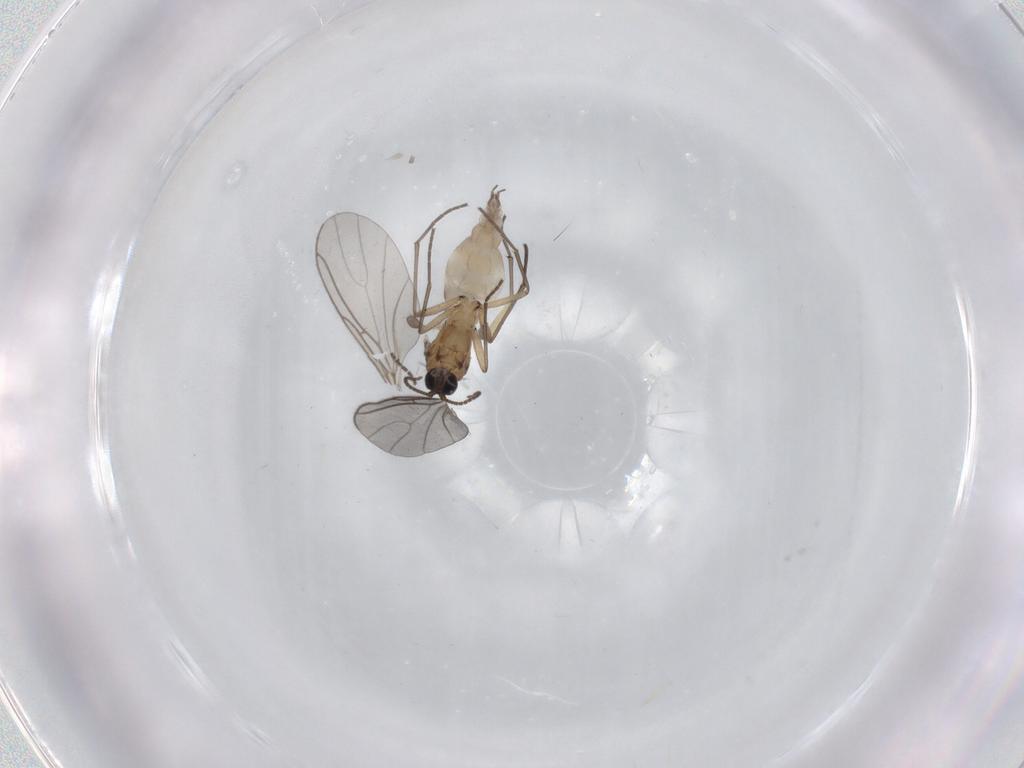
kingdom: Animalia
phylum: Arthropoda
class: Insecta
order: Diptera
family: Sciaridae
